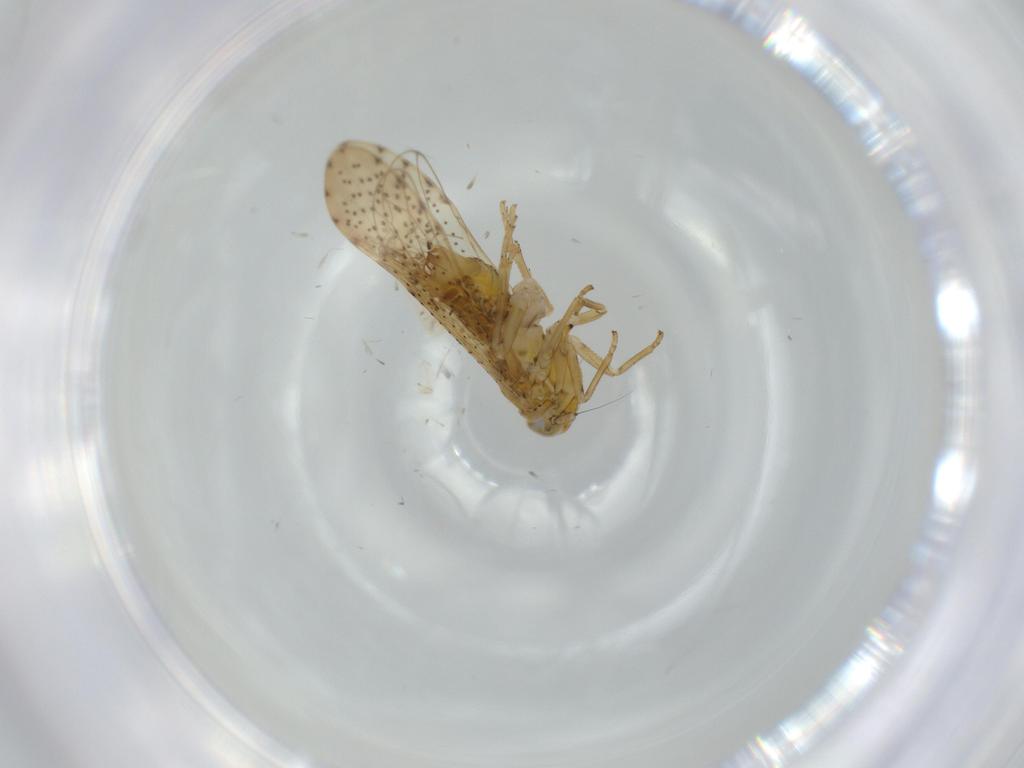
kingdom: Animalia
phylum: Arthropoda
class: Insecta
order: Hemiptera
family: Delphacidae
